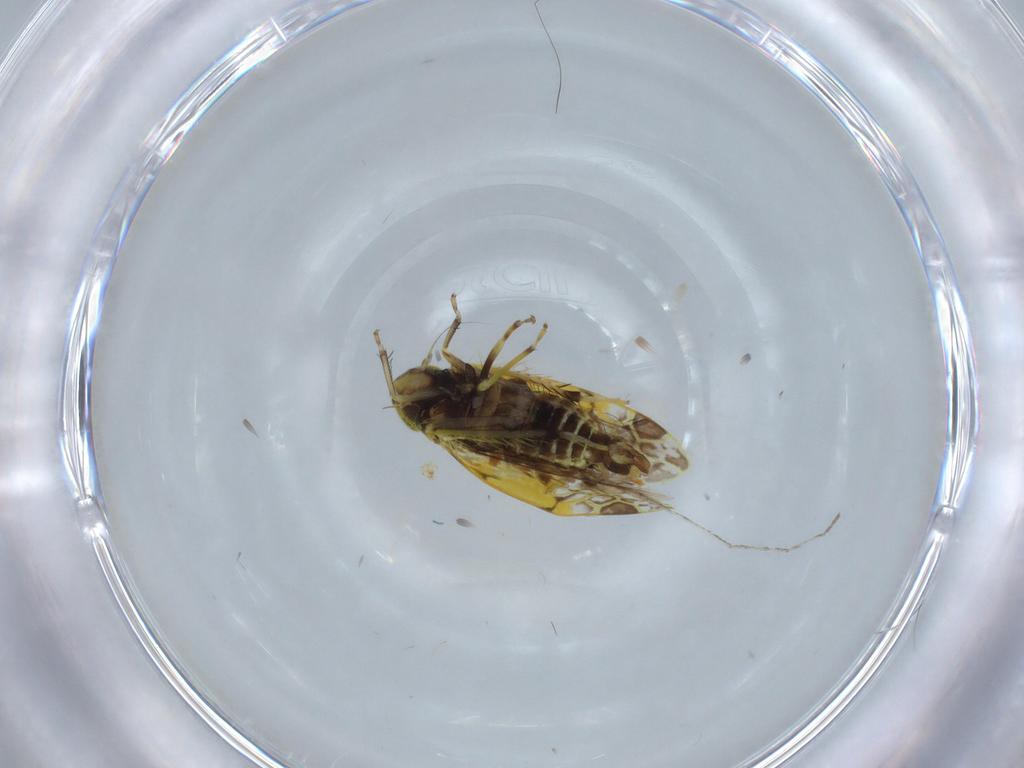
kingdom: Animalia
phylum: Arthropoda
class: Insecta
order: Hemiptera
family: Cicadellidae
